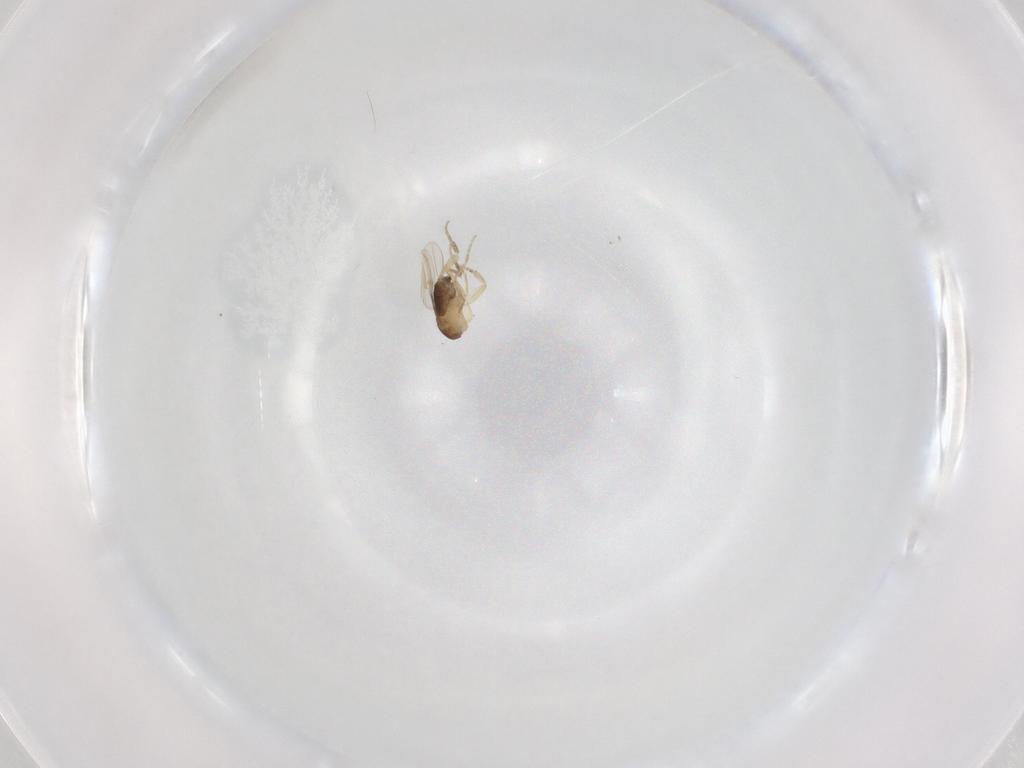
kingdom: Animalia
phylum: Arthropoda
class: Insecta
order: Diptera
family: Phoridae
